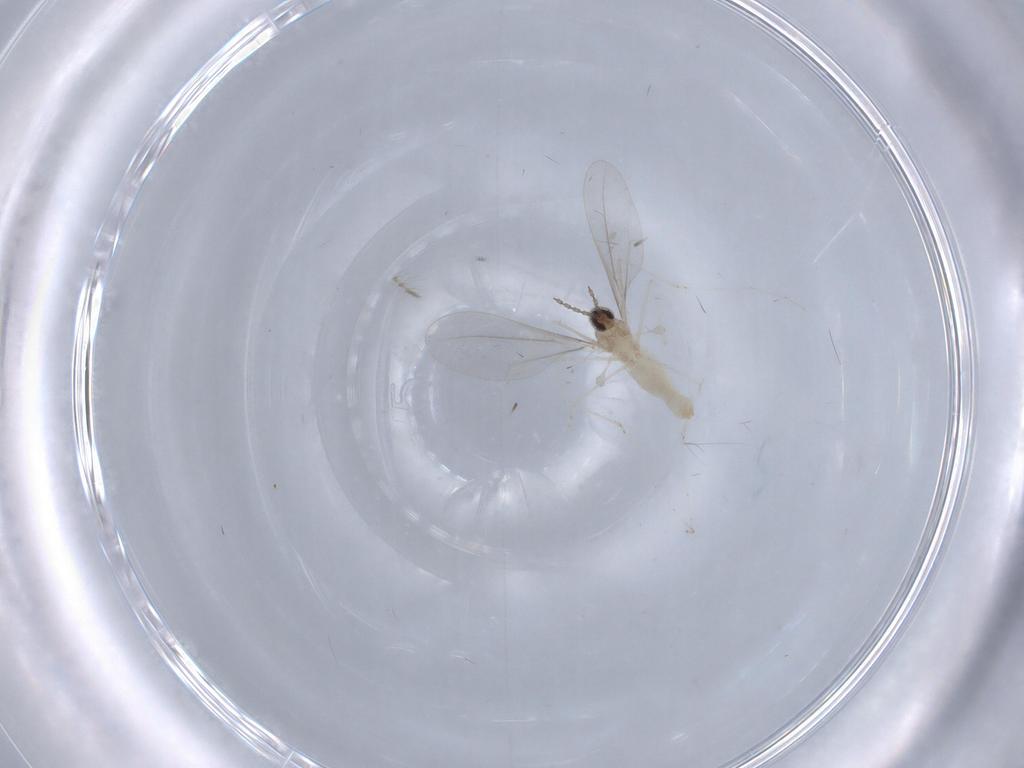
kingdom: Animalia
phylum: Arthropoda
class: Insecta
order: Diptera
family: Cecidomyiidae
